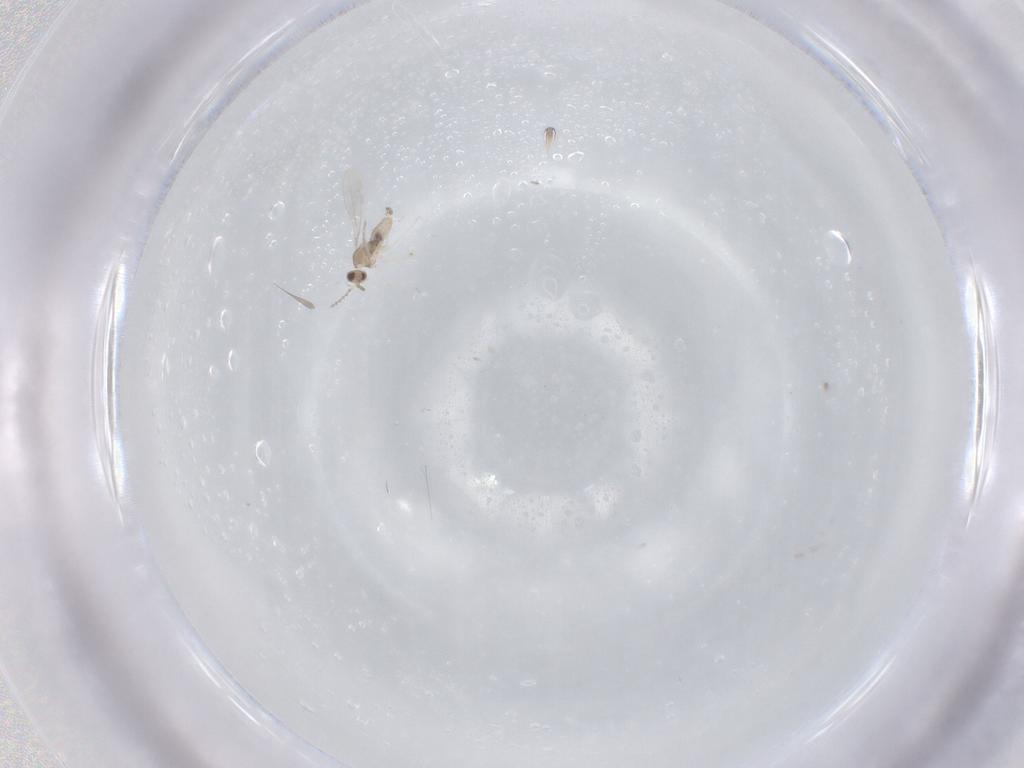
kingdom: Animalia
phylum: Arthropoda
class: Insecta
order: Diptera
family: Cecidomyiidae
